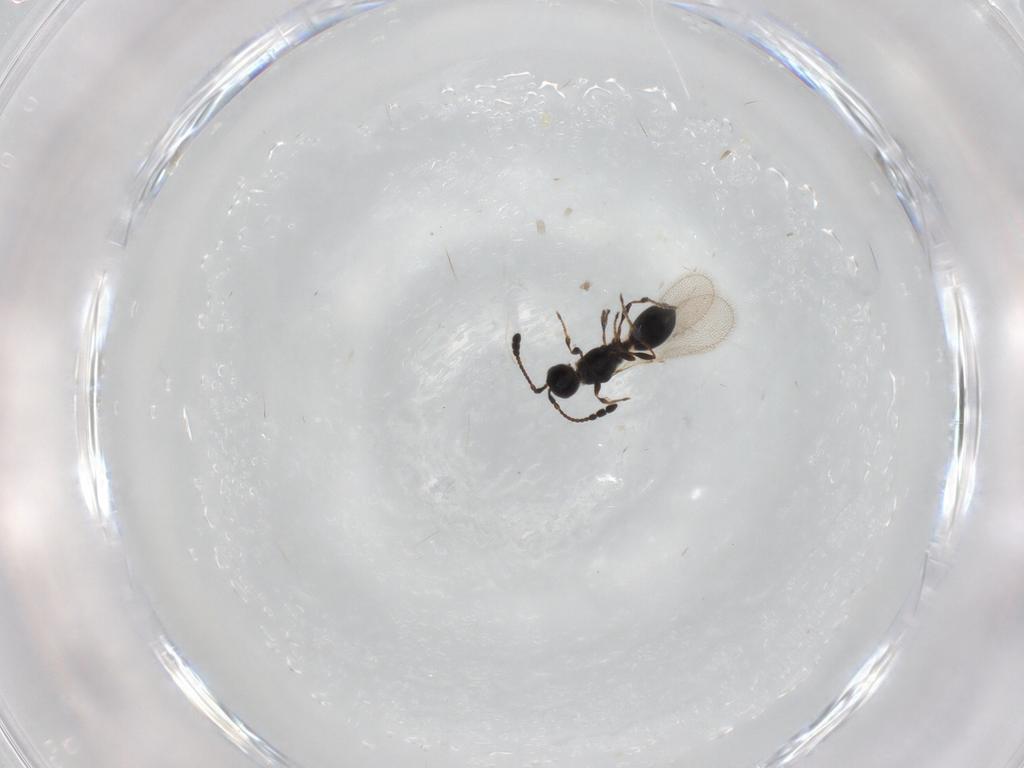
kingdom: Animalia
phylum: Arthropoda
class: Insecta
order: Hymenoptera
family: Diapriidae
